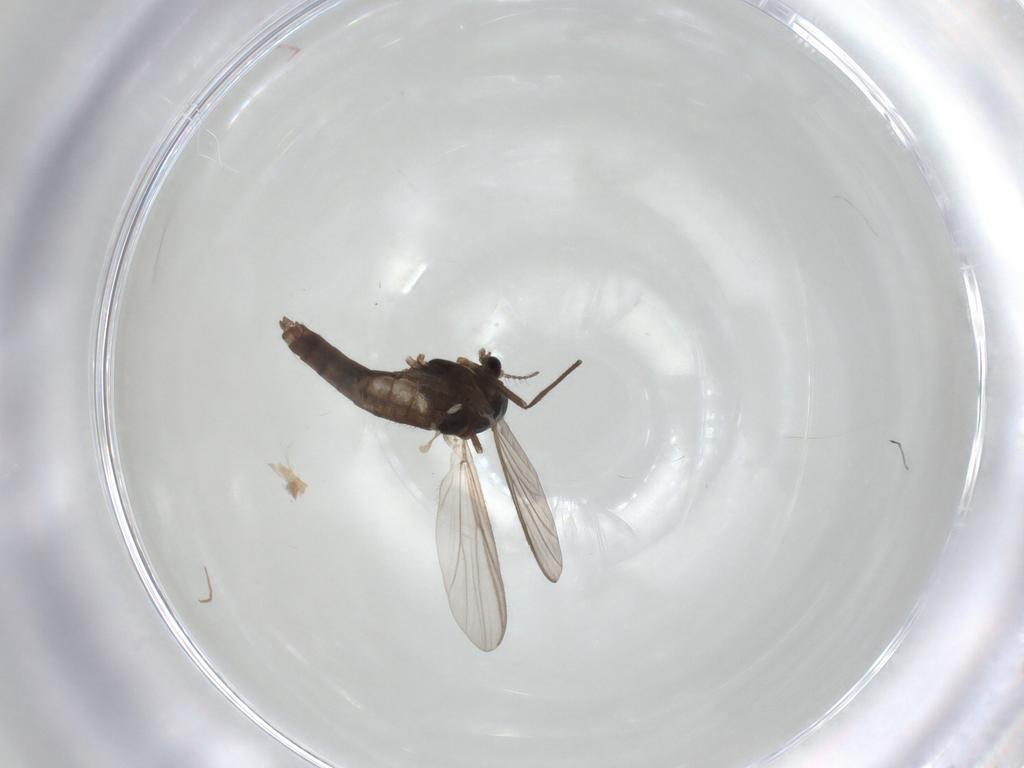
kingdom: Animalia
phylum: Arthropoda
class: Insecta
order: Diptera
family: Chironomidae
